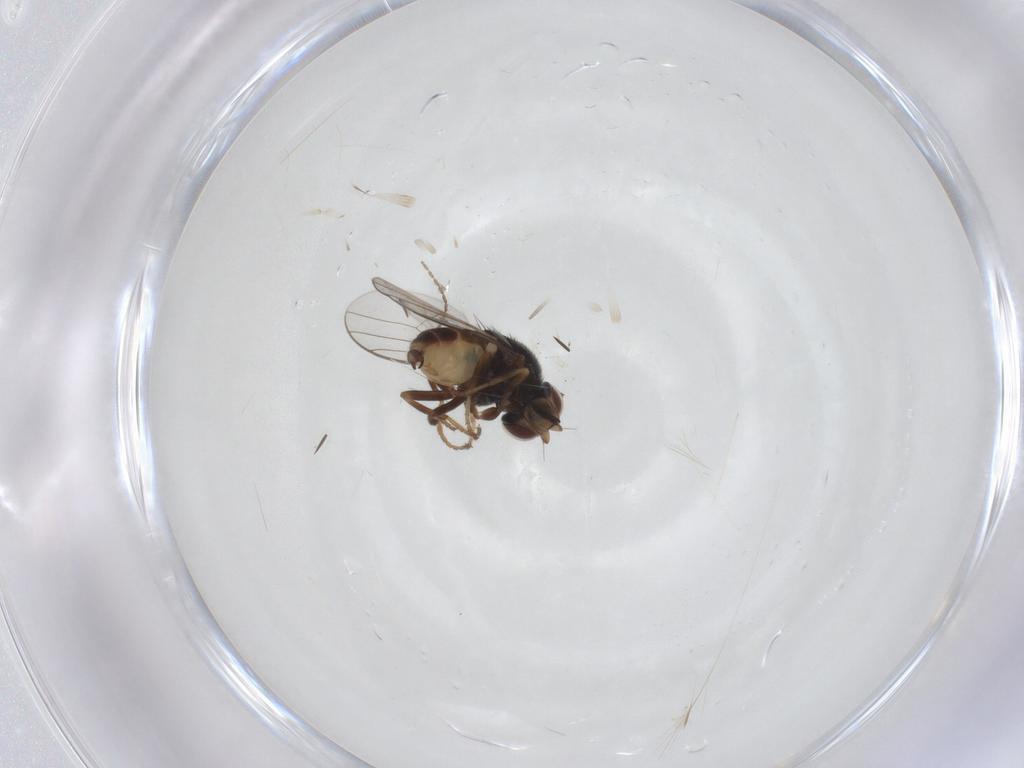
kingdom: Animalia
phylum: Arthropoda
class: Insecta
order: Diptera
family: Chloropidae
